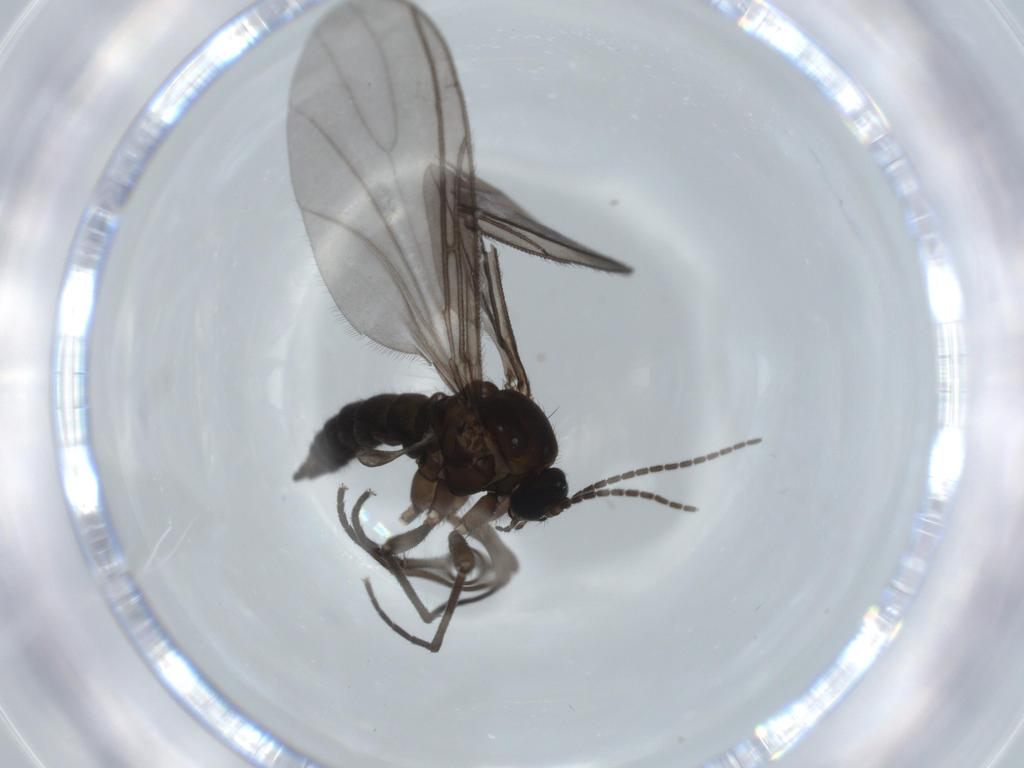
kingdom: Animalia
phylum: Arthropoda
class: Insecta
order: Diptera
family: Sciaridae
